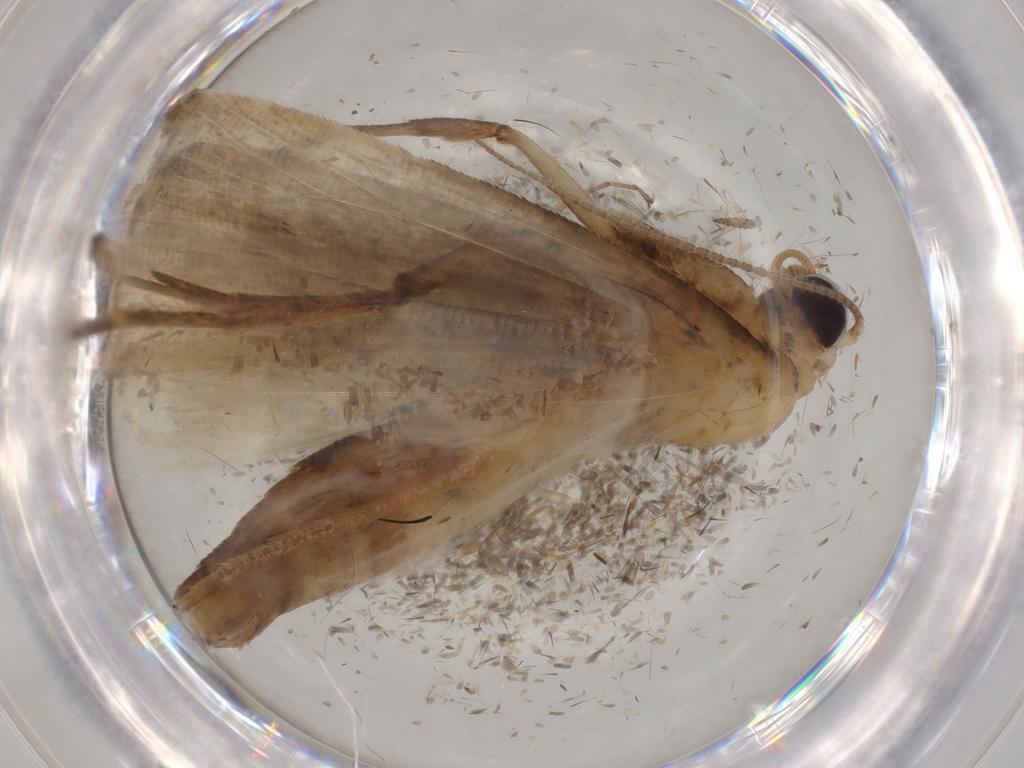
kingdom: Animalia
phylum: Arthropoda
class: Insecta
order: Lepidoptera
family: Noctuidae
